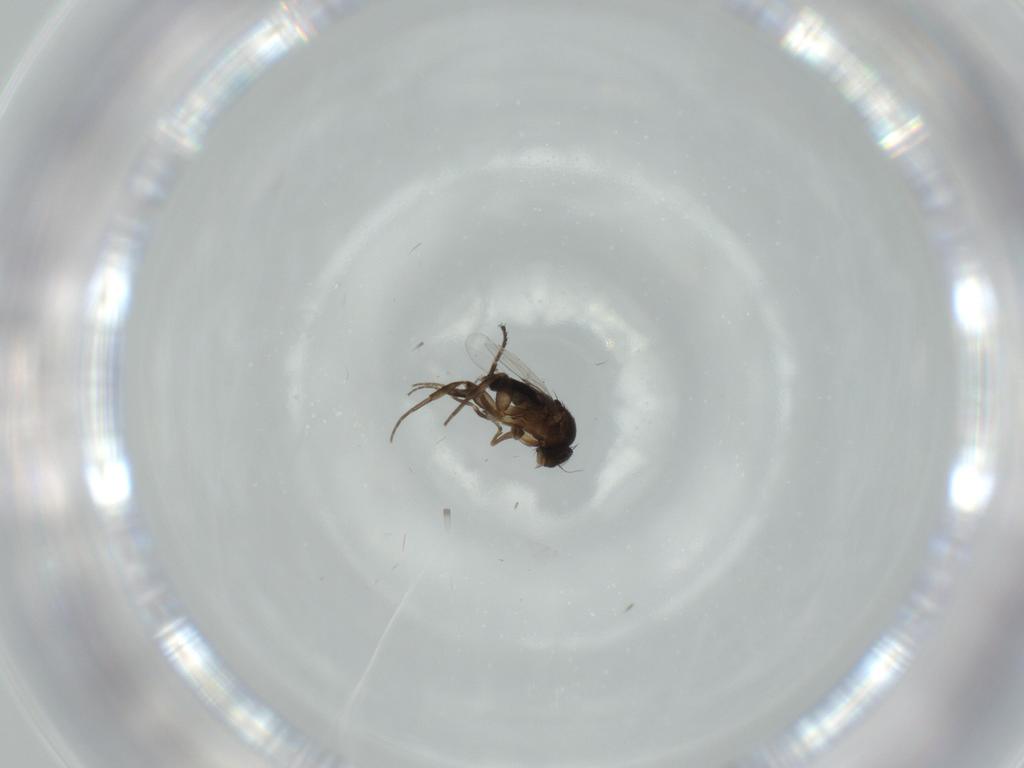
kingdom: Animalia
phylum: Arthropoda
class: Insecta
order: Diptera
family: Phoridae
